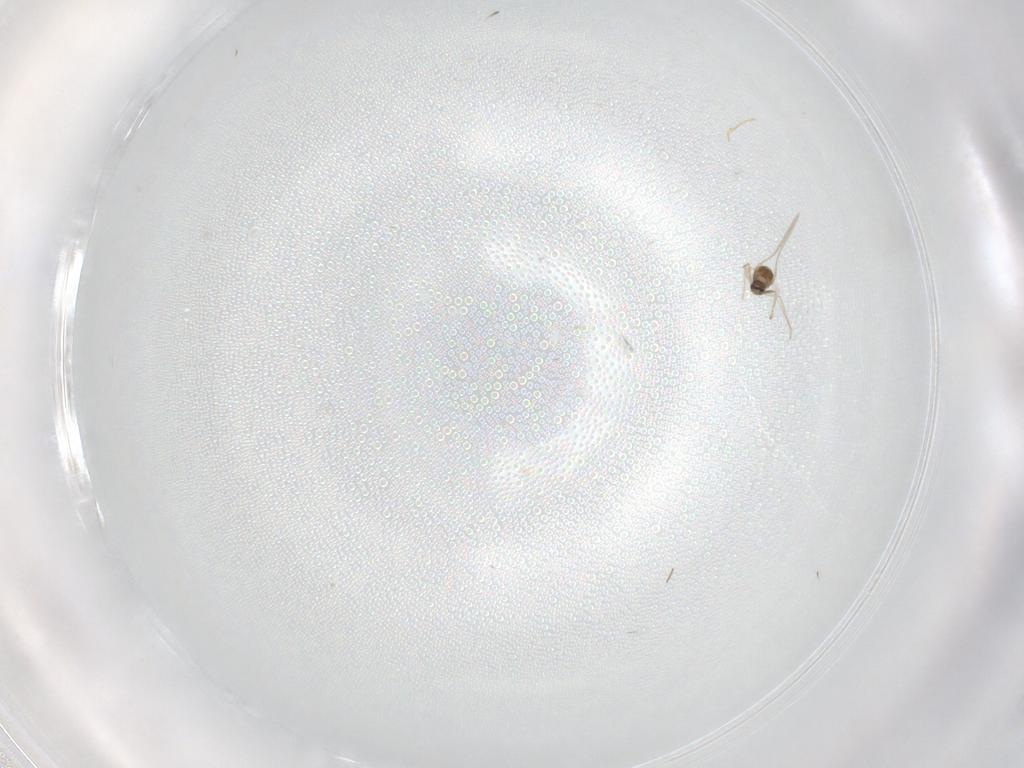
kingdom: Animalia
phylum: Arthropoda
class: Insecta
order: Diptera
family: Cecidomyiidae
